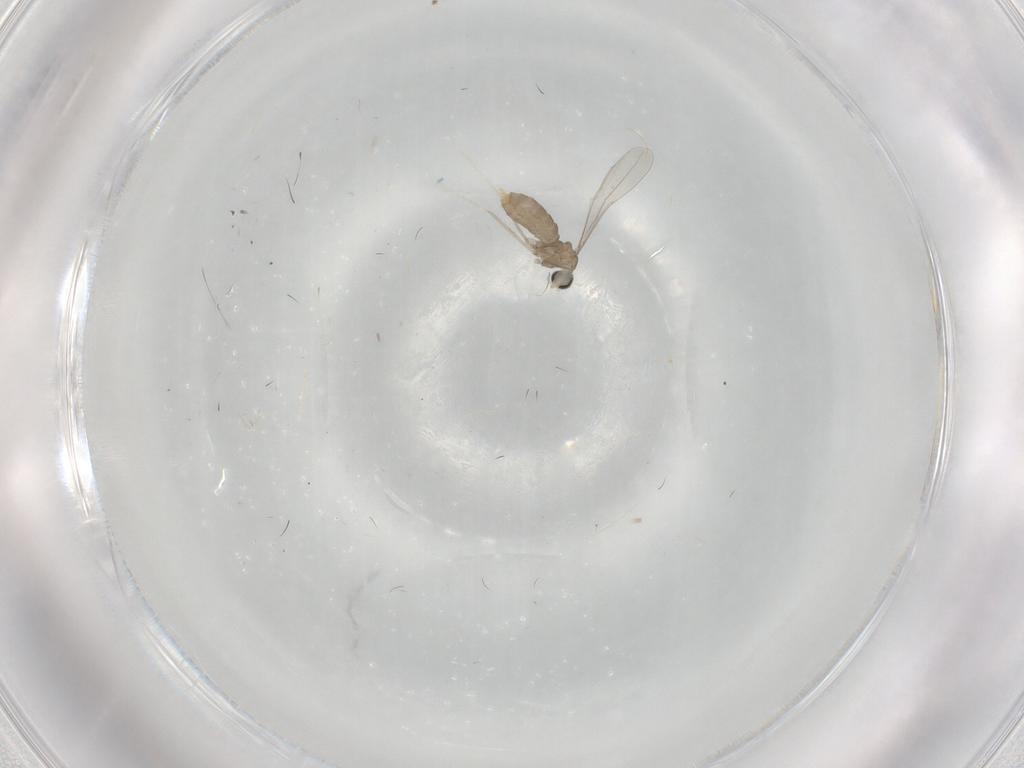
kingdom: Animalia
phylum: Arthropoda
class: Insecta
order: Diptera
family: Cecidomyiidae
